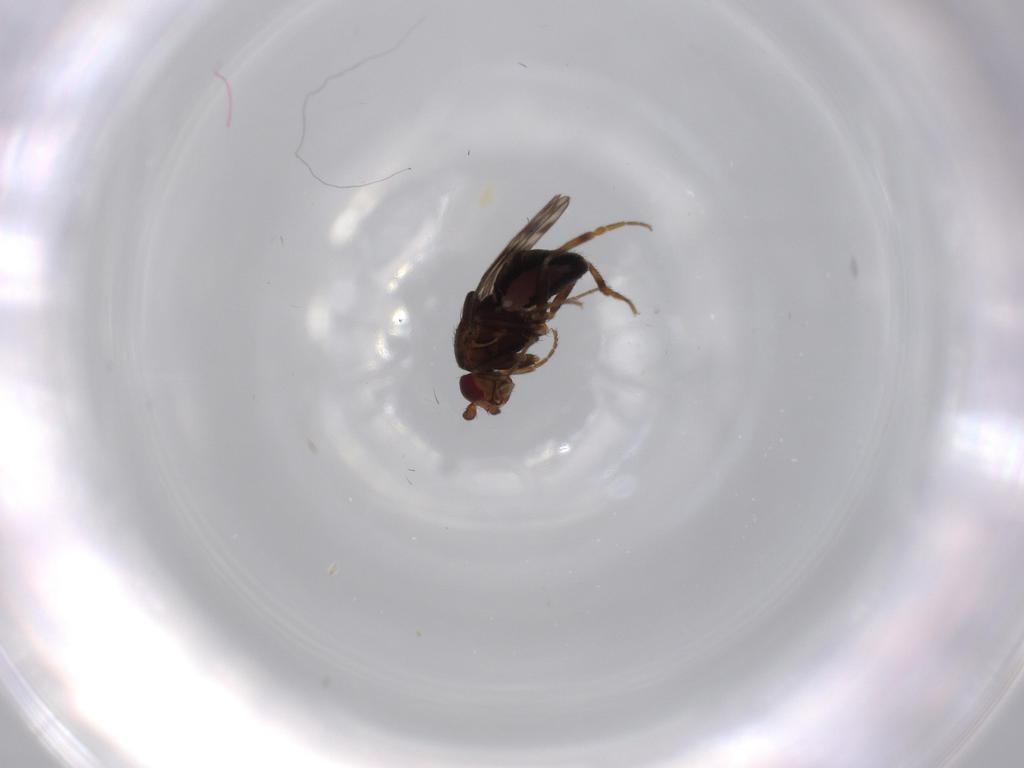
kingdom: Animalia
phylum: Arthropoda
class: Insecta
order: Diptera
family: Sphaeroceridae
